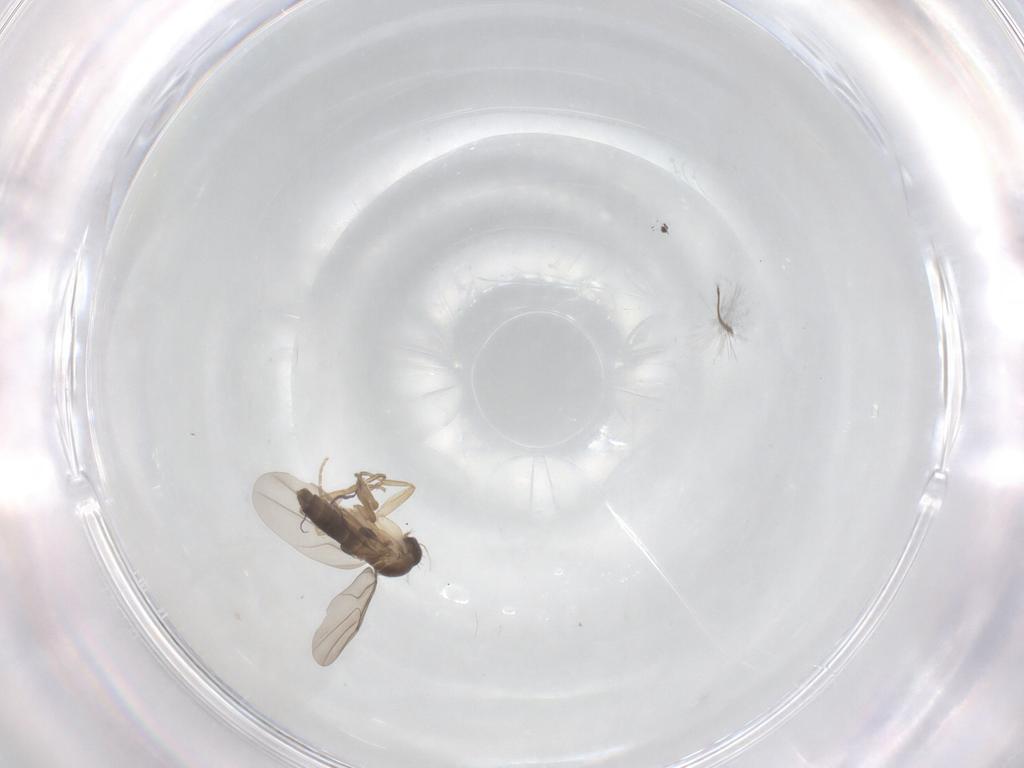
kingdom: Animalia
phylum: Arthropoda
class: Insecta
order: Diptera
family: Phoridae
